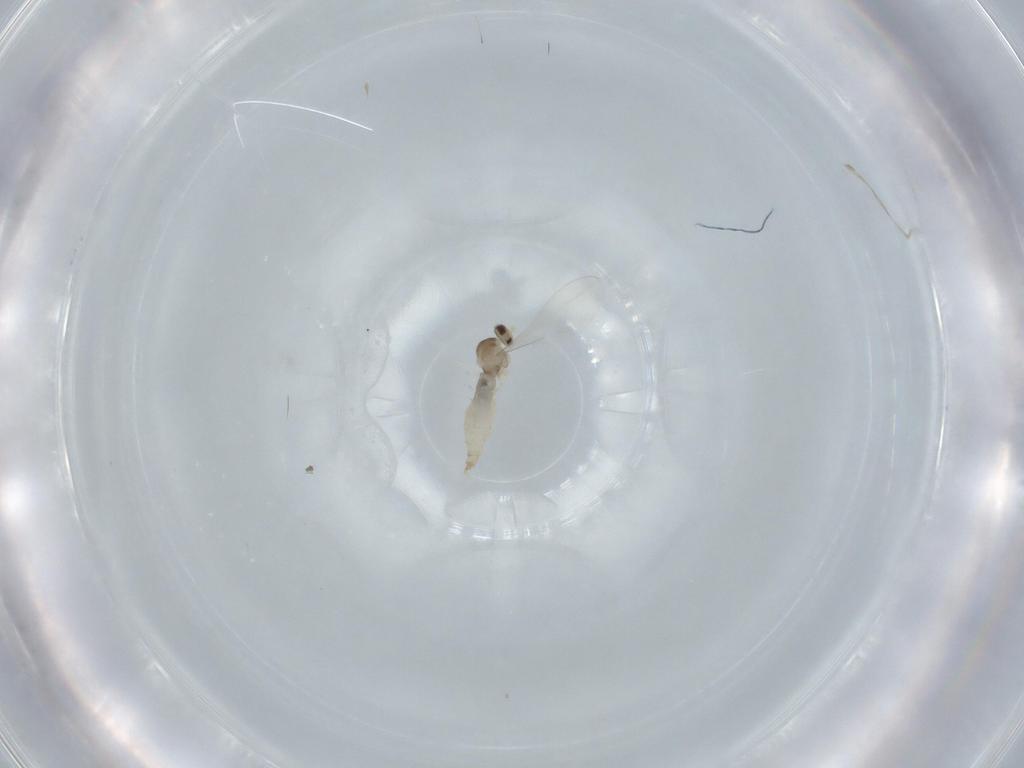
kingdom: Animalia
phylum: Arthropoda
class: Insecta
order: Diptera
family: Cecidomyiidae
